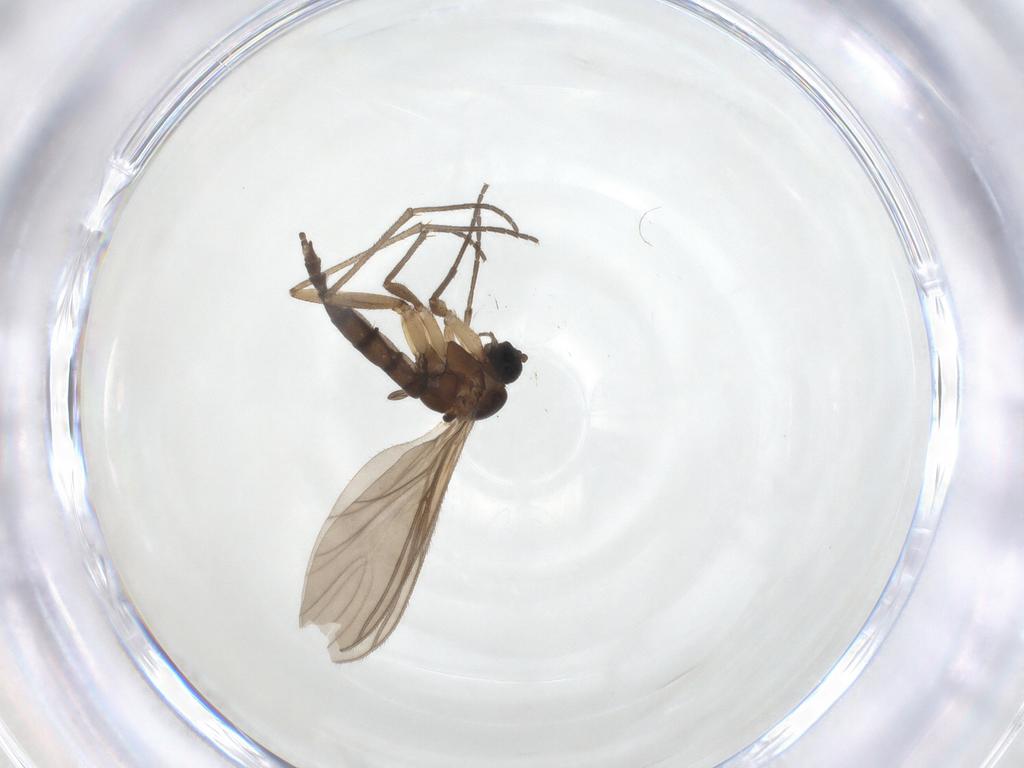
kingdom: Animalia
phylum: Arthropoda
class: Insecta
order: Diptera
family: Sciaridae
